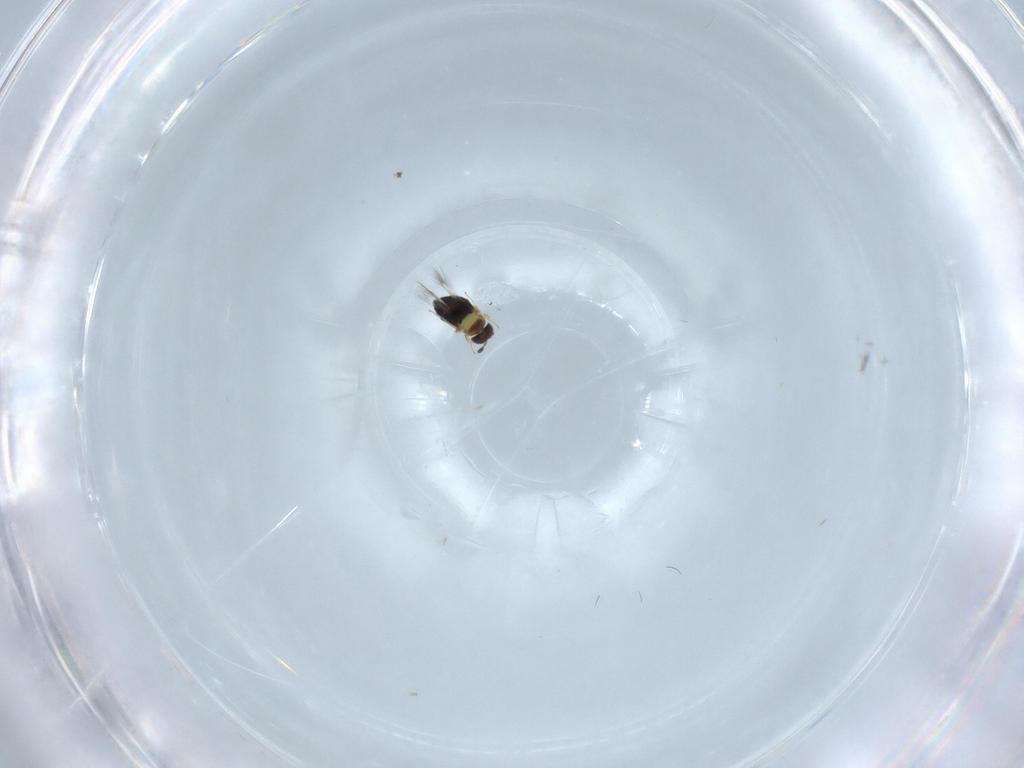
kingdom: Animalia
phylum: Arthropoda
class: Insecta
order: Hymenoptera
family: Signiphoridae
